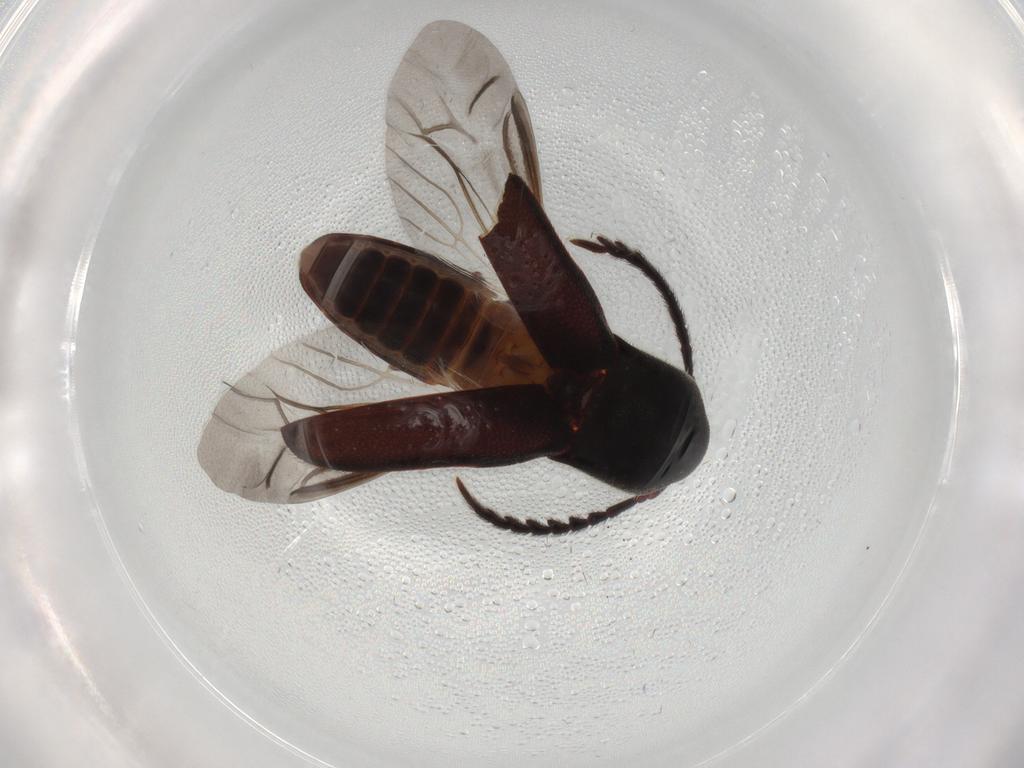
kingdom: Animalia
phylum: Arthropoda
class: Insecta
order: Coleoptera
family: Eucnemidae
